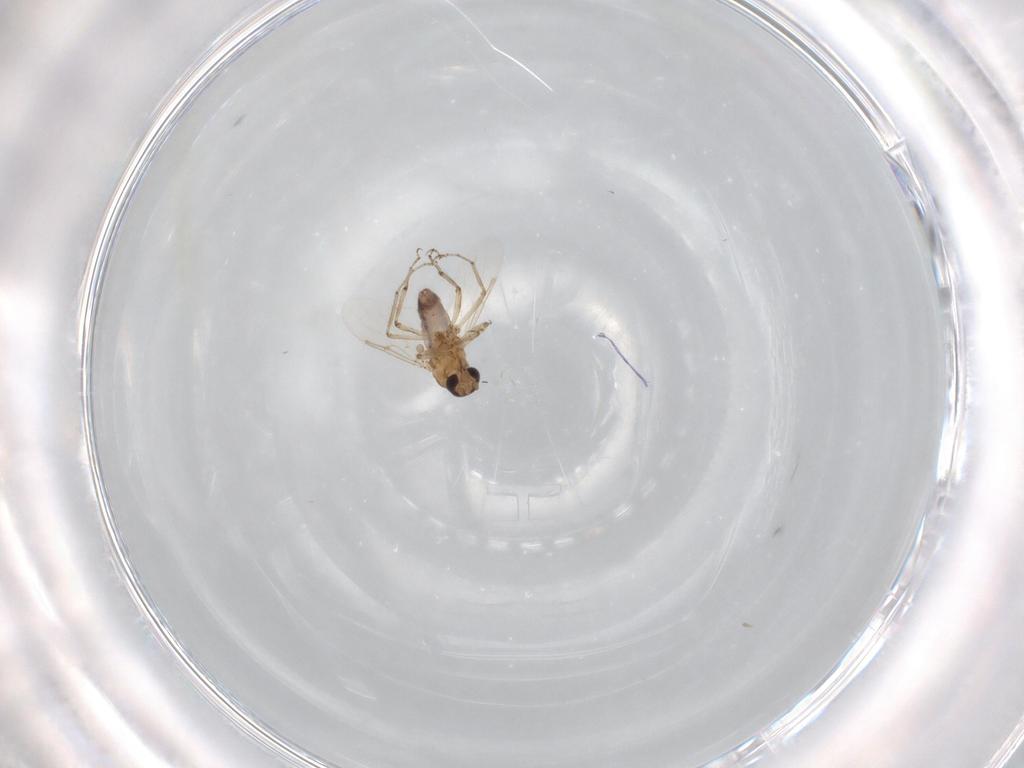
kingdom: Animalia
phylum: Arthropoda
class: Insecta
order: Diptera
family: Ceratopogonidae
